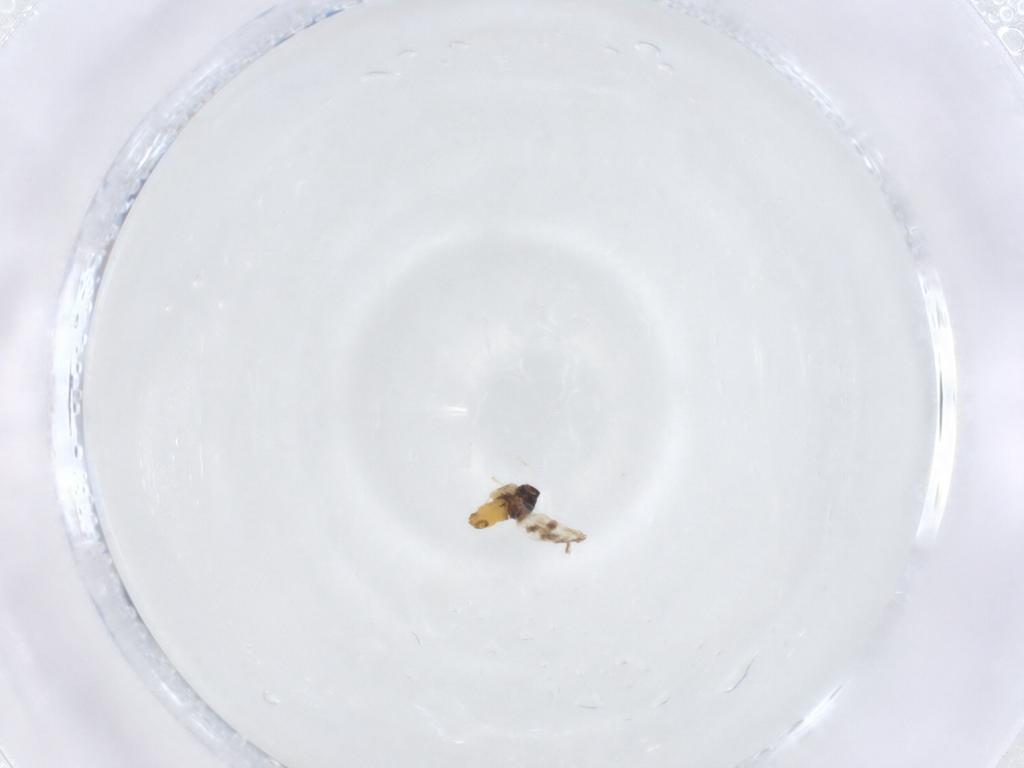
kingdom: Animalia
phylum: Arthropoda
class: Insecta
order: Hemiptera
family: Aleyrodidae
